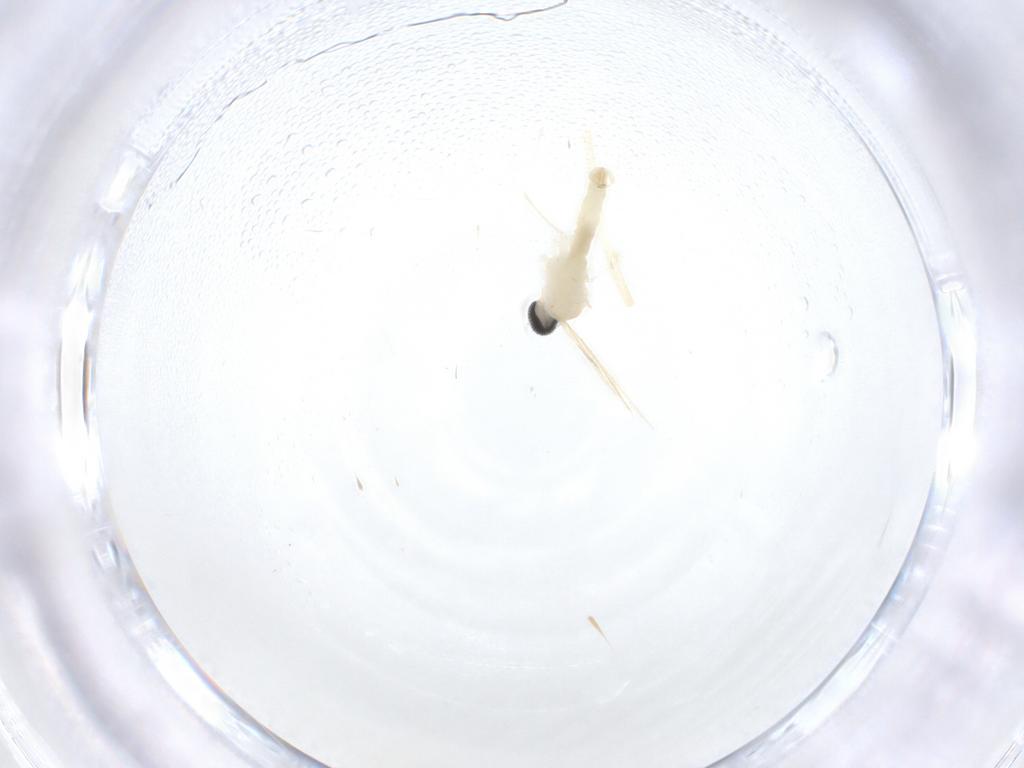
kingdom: Animalia
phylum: Arthropoda
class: Insecta
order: Diptera
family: Cecidomyiidae
